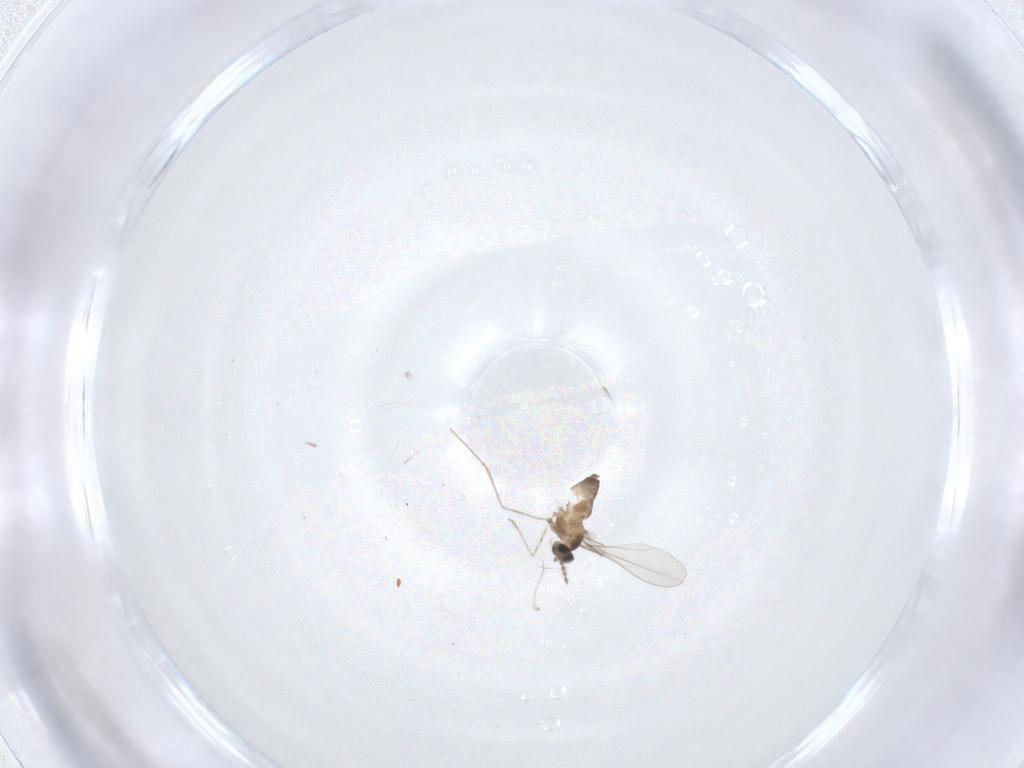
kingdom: Animalia
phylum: Arthropoda
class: Insecta
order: Diptera
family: Cecidomyiidae
